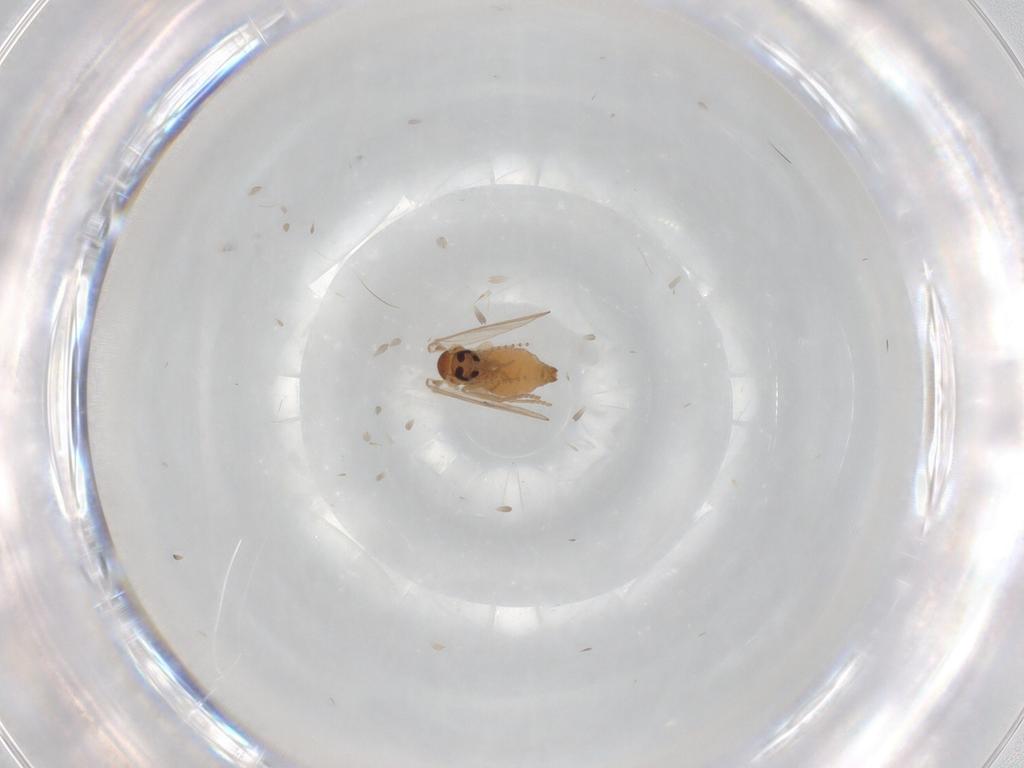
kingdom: Animalia
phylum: Arthropoda
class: Insecta
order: Diptera
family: Psychodidae
